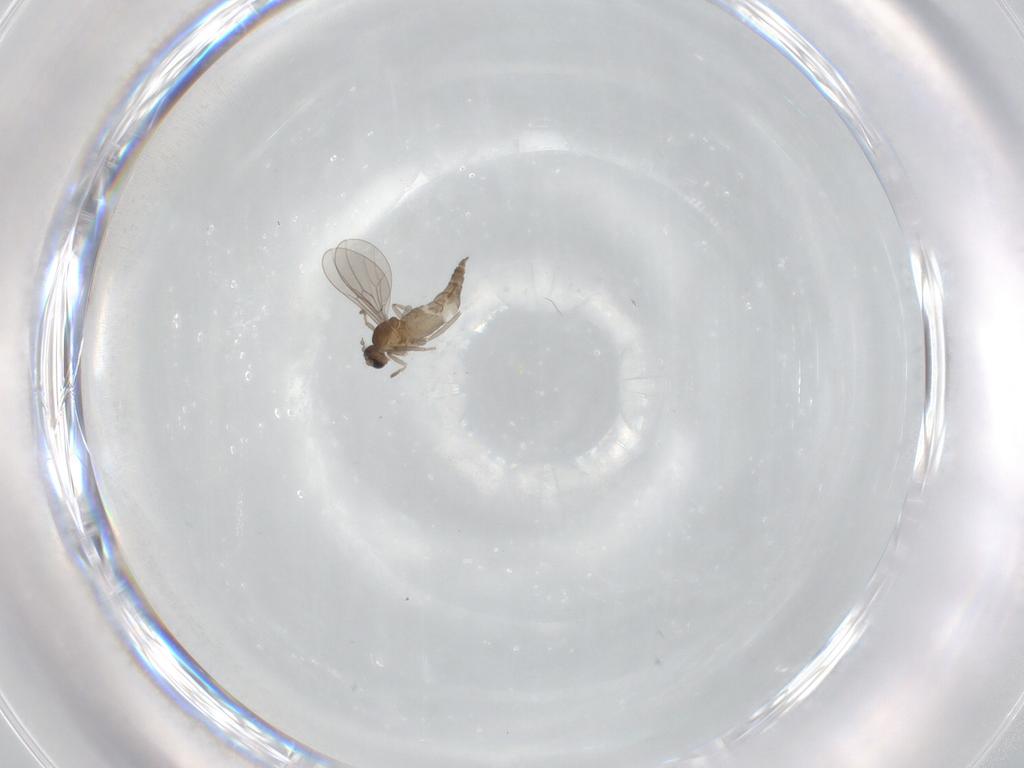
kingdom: Animalia
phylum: Arthropoda
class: Insecta
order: Diptera
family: Cecidomyiidae
